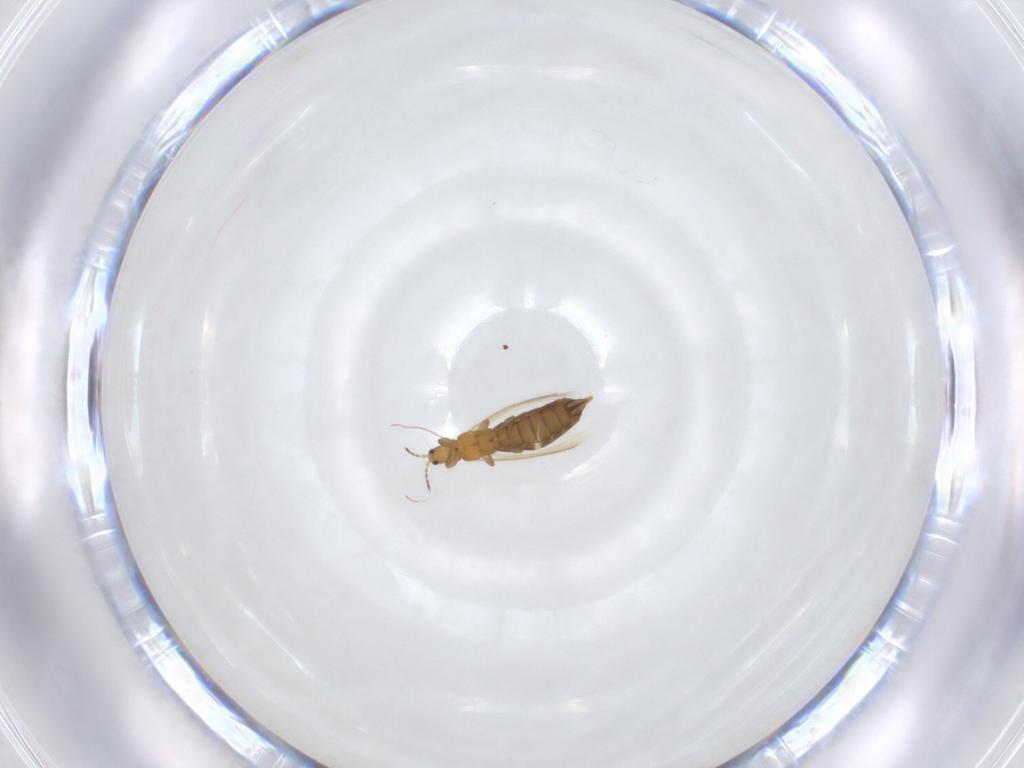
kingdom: Animalia
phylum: Arthropoda
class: Insecta
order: Thysanoptera
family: Thripidae
